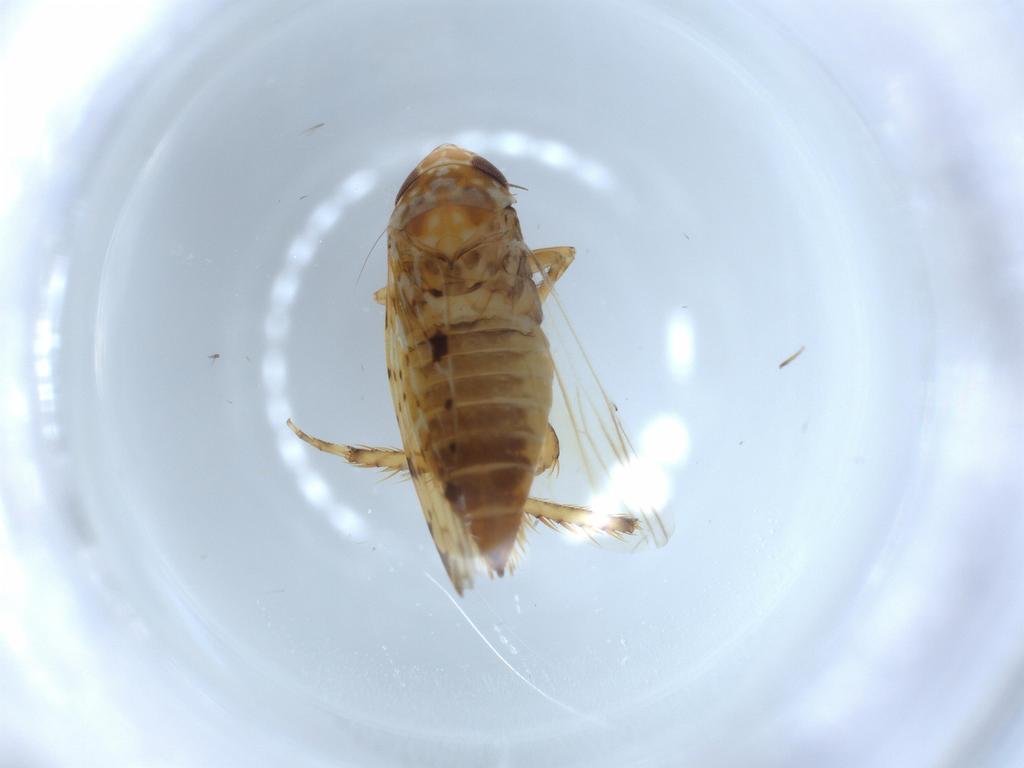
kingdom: Animalia
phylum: Arthropoda
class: Insecta
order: Hemiptera
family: Cicadellidae
